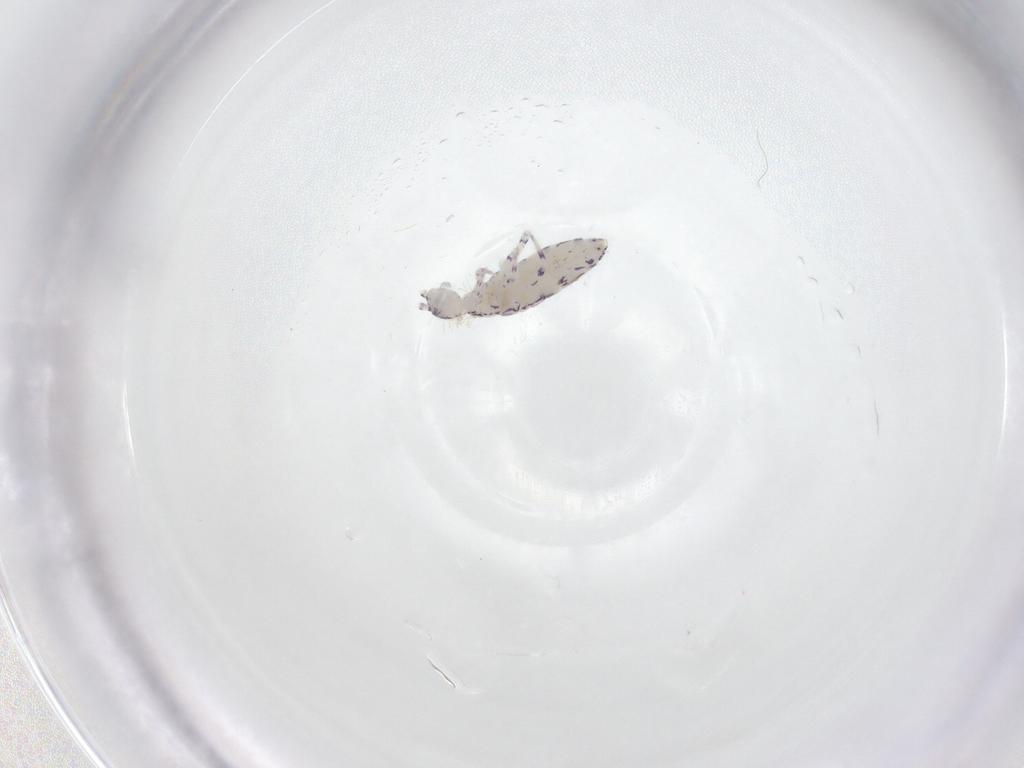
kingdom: Animalia
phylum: Arthropoda
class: Collembola
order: Entomobryomorpha
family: Entomobryidae
